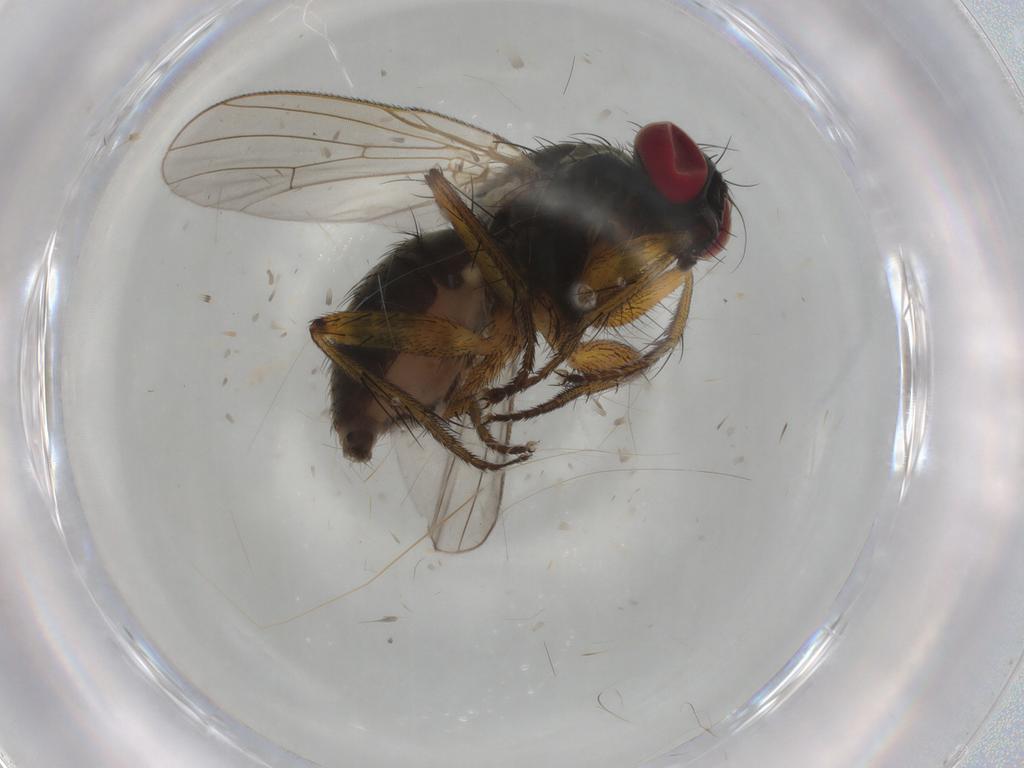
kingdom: Animalia
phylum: Arthropoda
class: Insecta
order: Diptera
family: Muscidae
